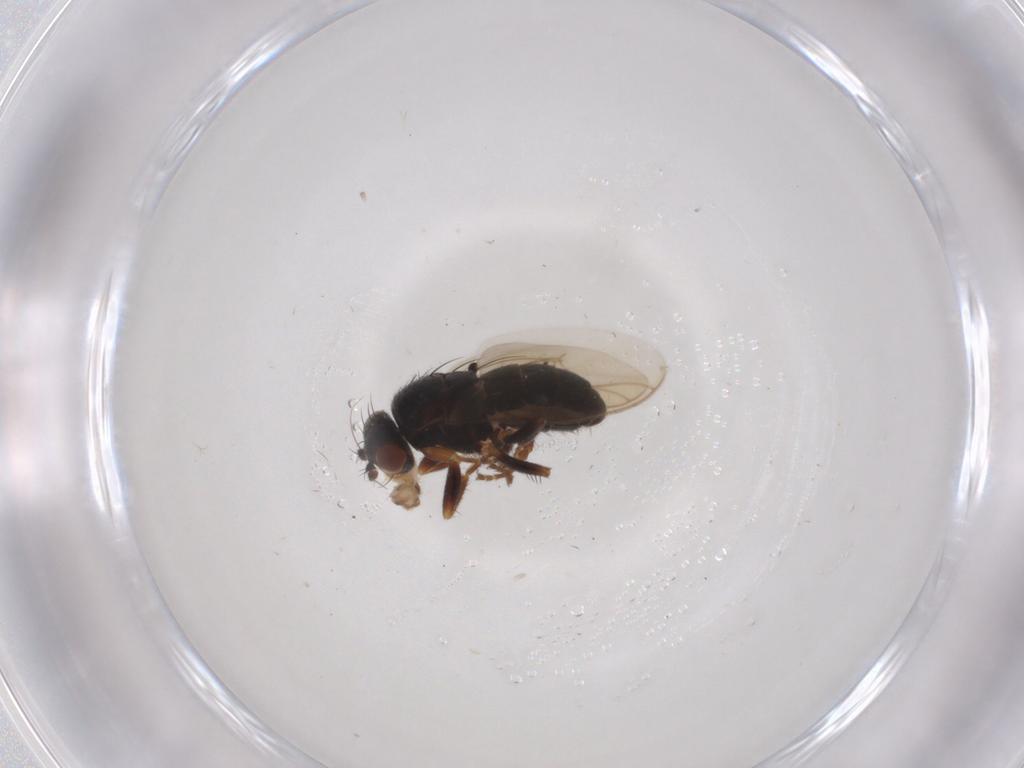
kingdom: Animalia
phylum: Arthropoda
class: Insecta
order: Diptera
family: Sphaeroceridae
